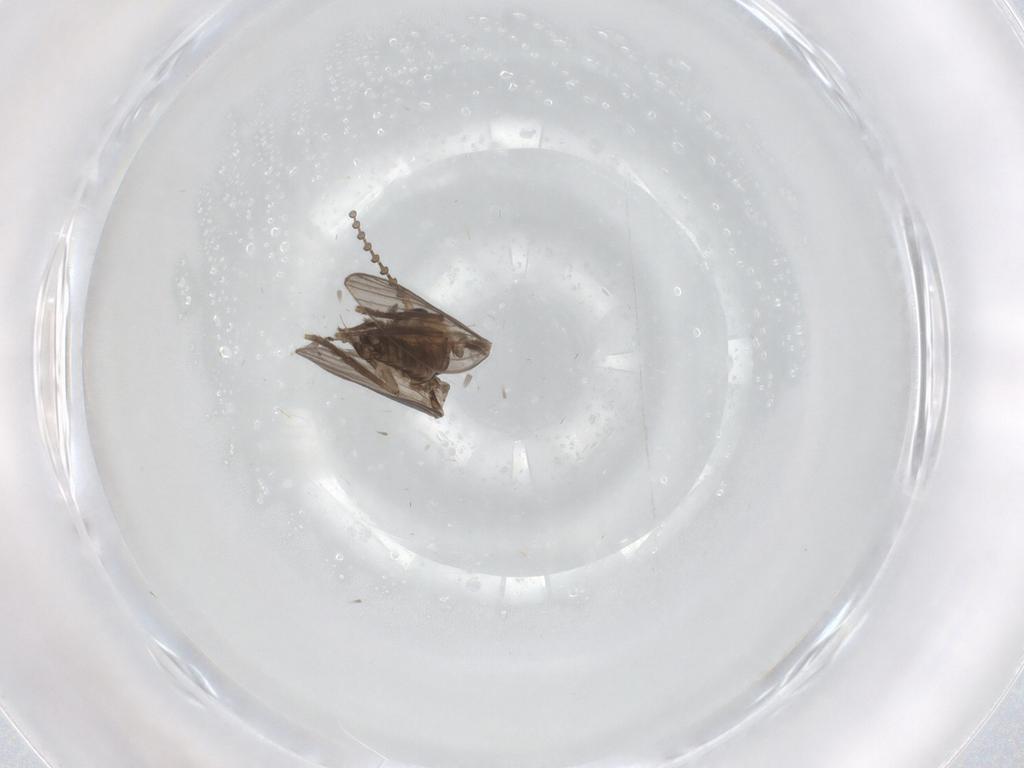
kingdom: Animalia
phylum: Arthropoda
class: Insecta
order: Diptera
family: Psychodidae
